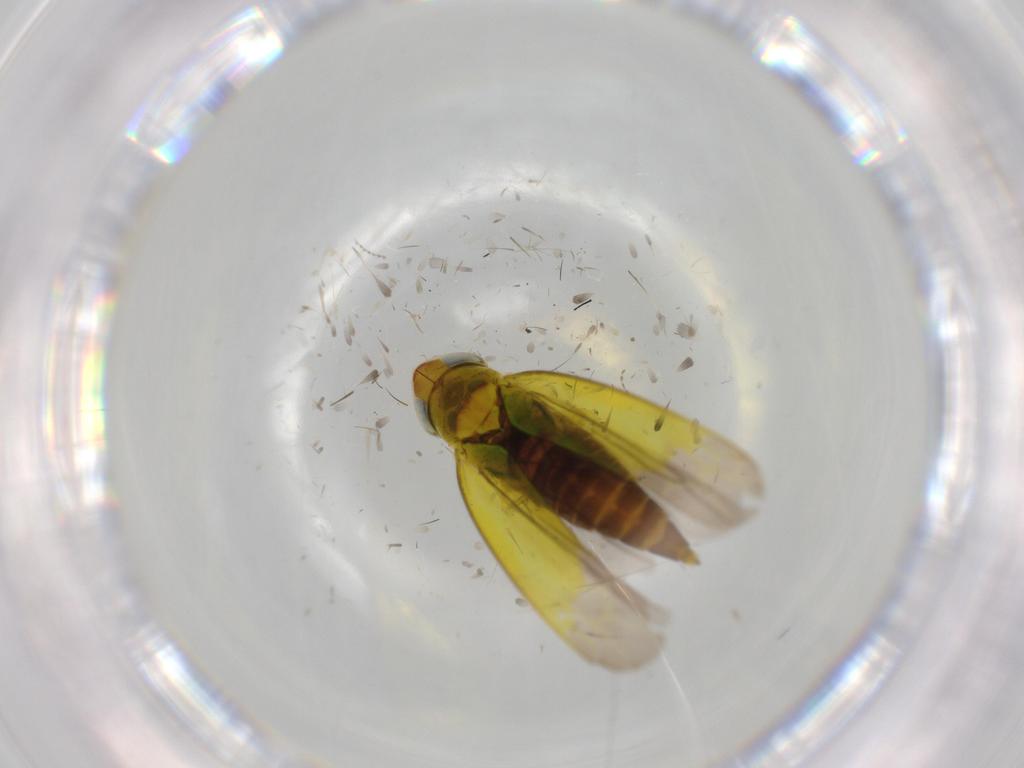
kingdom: Animalia
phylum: Arthropoda
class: Insecta
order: Hemiptera
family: Cicadellidae
